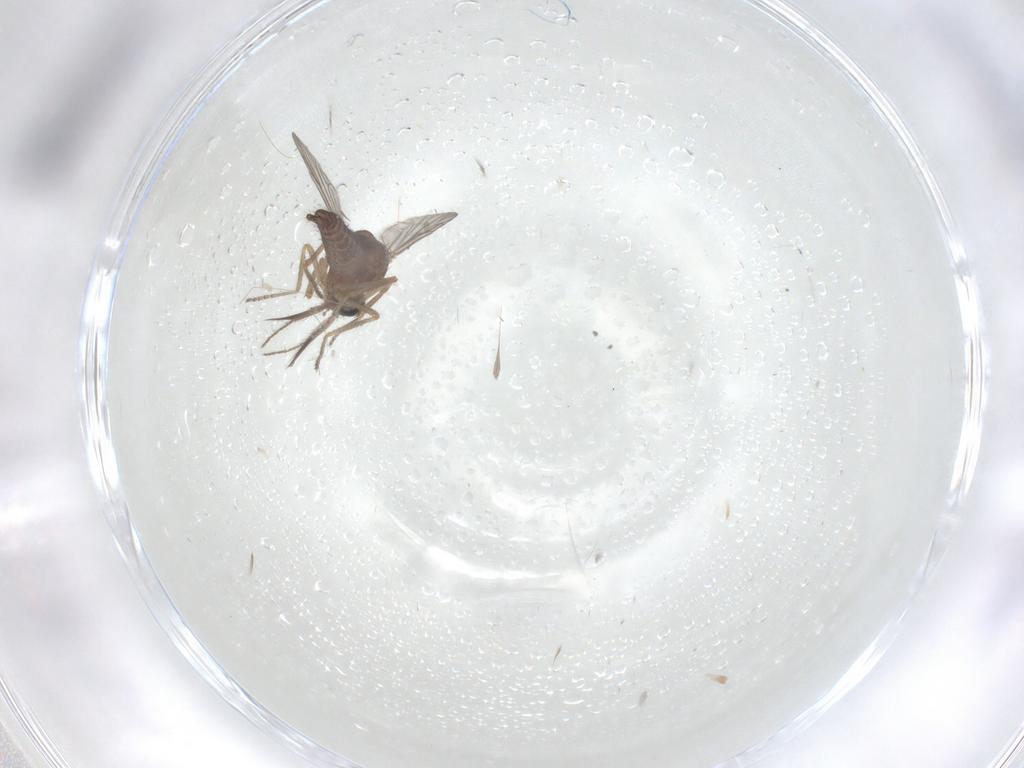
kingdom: Animalia
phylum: Arthropoda
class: Insecta
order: Diptera
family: Ceratopogonidae
